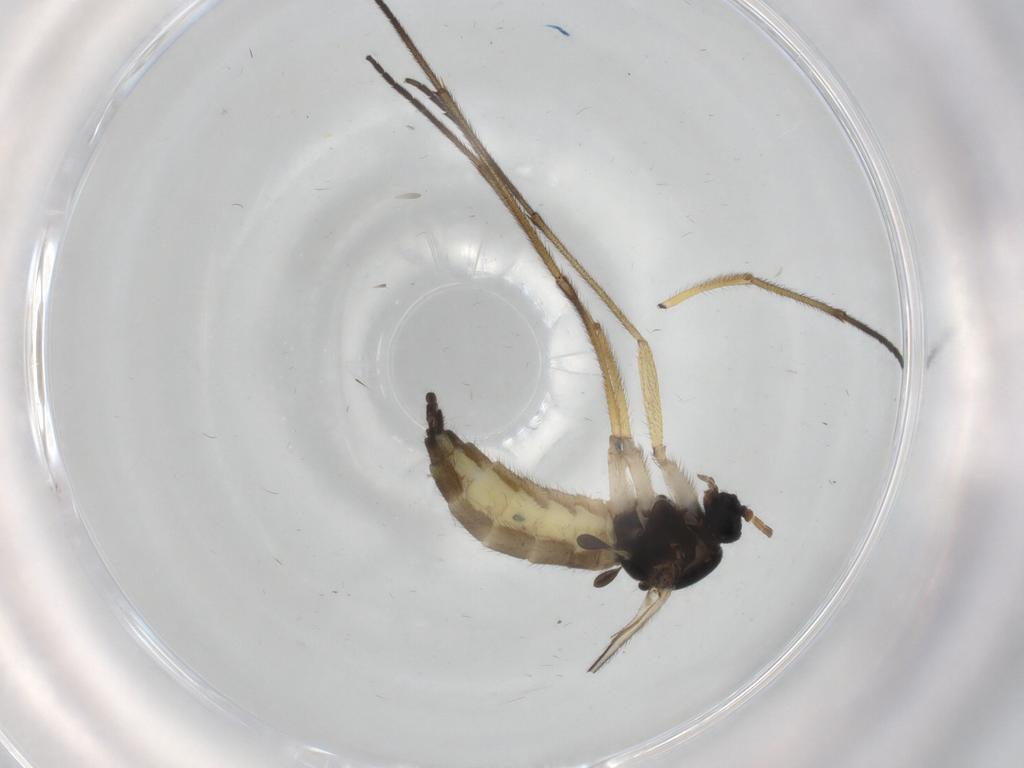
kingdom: Animalia
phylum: Arthropoda
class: Insecta
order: Diptera
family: Sciaridae
